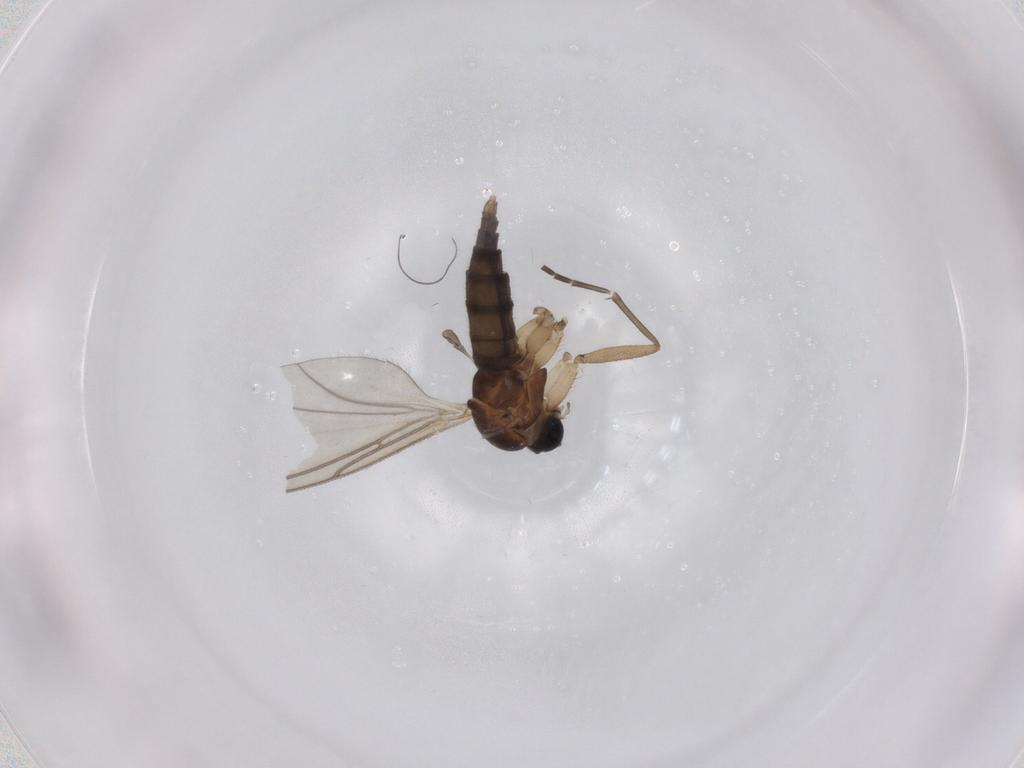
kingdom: Animalia
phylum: Arthropoda
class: Insecta
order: Diptera
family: Sciaridae
